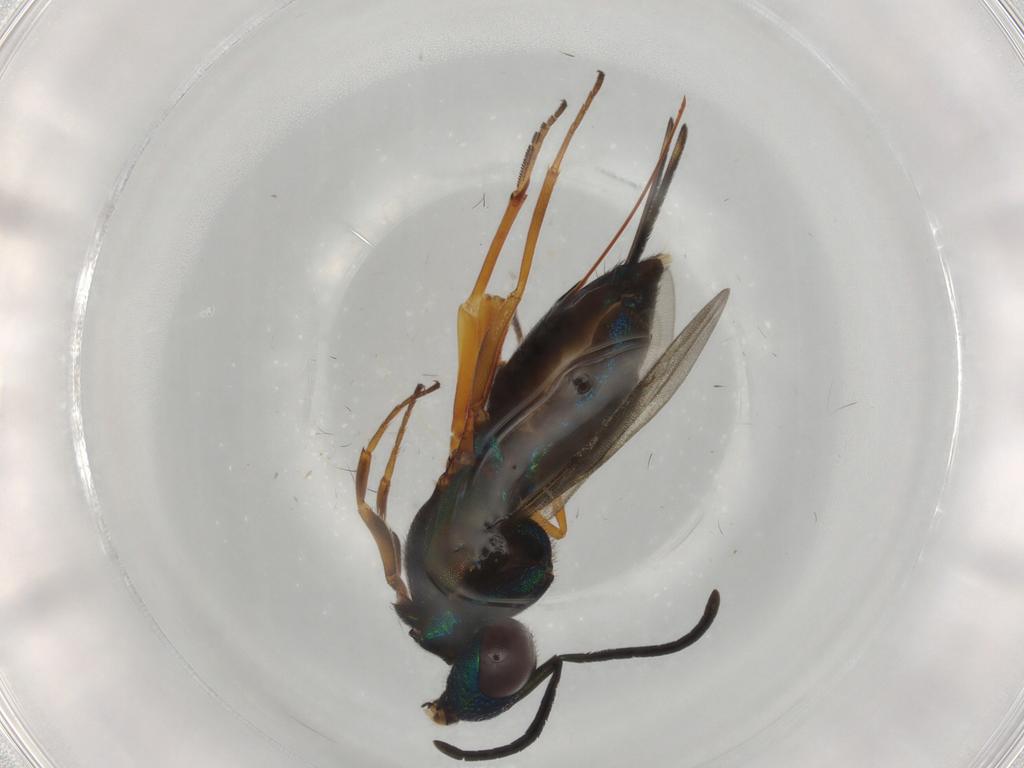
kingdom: Animalia
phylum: Arthropoda
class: Insecta
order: Hymenoptera
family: Eupelmidae
